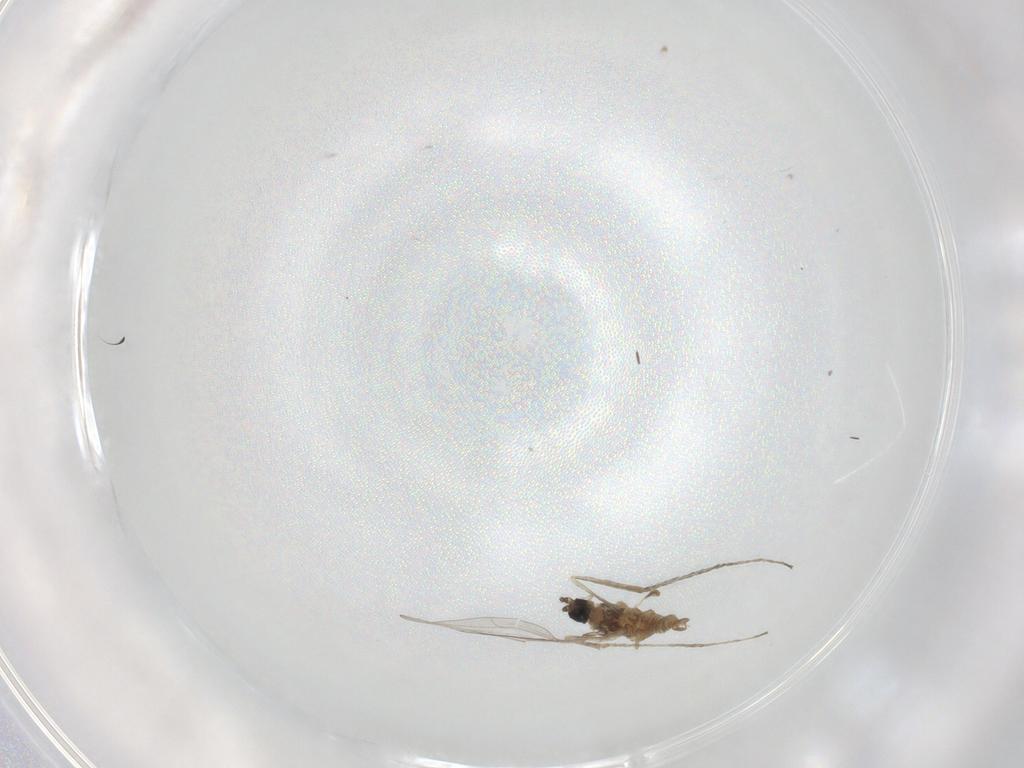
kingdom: Animalia
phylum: Arthropoda
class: Insecta
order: Diptera
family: Cecidomyiidae
